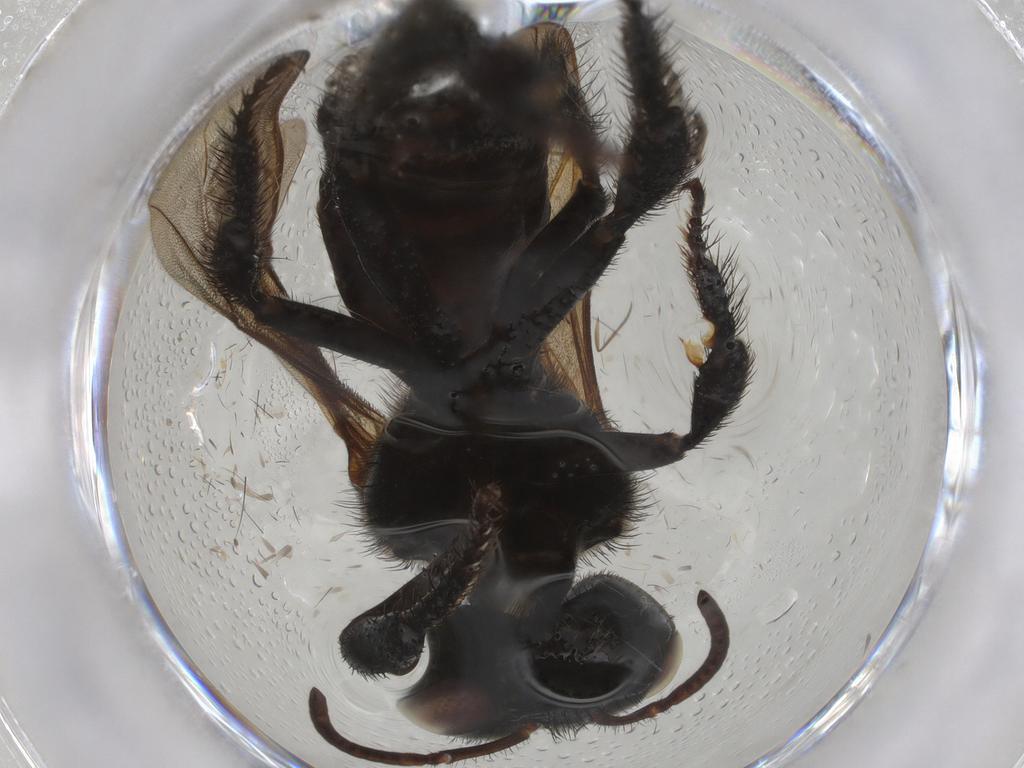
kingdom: Animalia
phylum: Arthropoda
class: Insecta
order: Hymenoptera
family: Apidae
